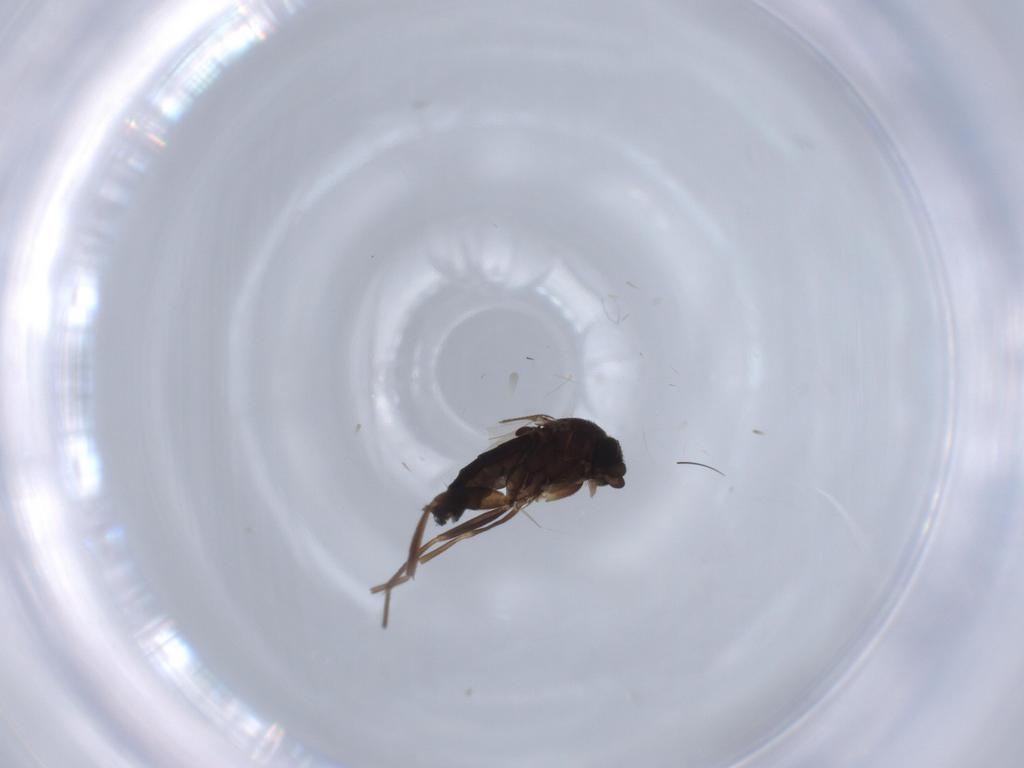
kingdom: Animalia
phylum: Arthropoda
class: Insecta
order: Diptera
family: Phoridae
